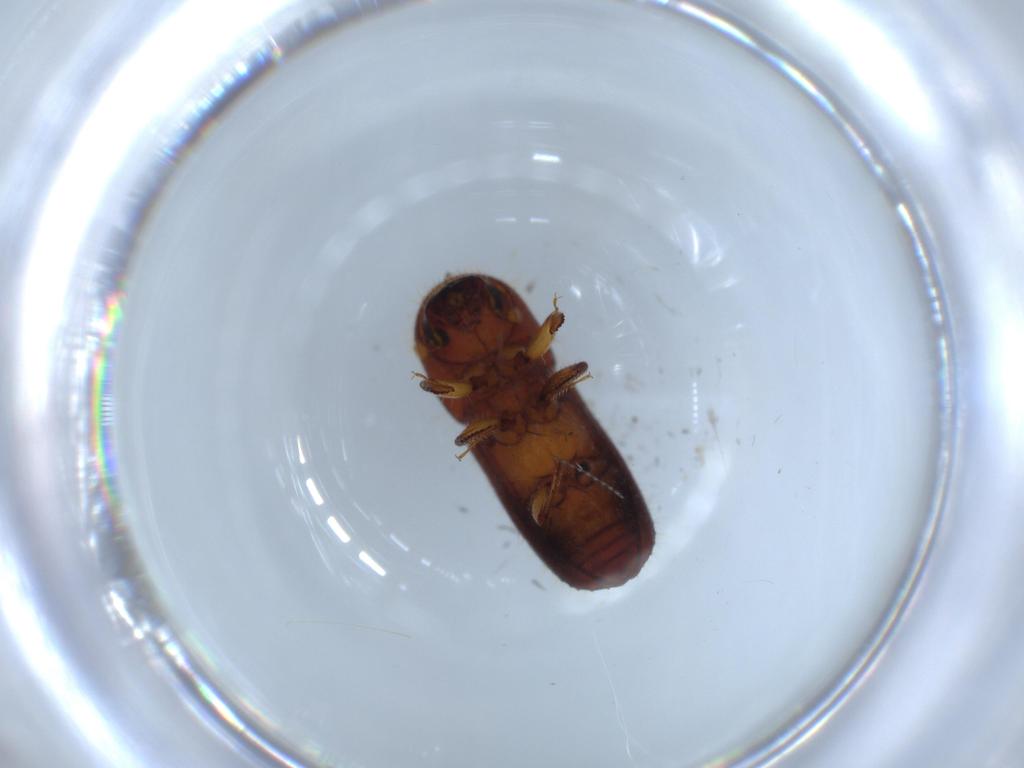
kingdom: Animalia
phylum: Arthropoda
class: Insecta
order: Coleoptera
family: Curculionidae
